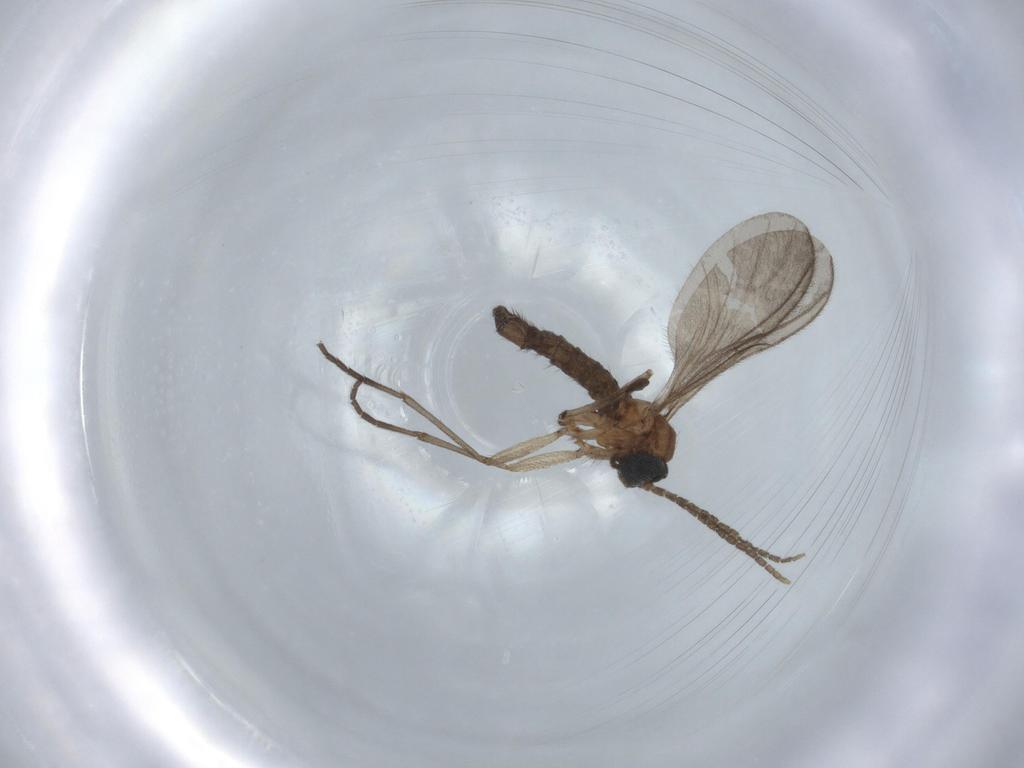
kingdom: Animalia
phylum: Arthropoda
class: Insecta
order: Diptera
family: Sciaridae
